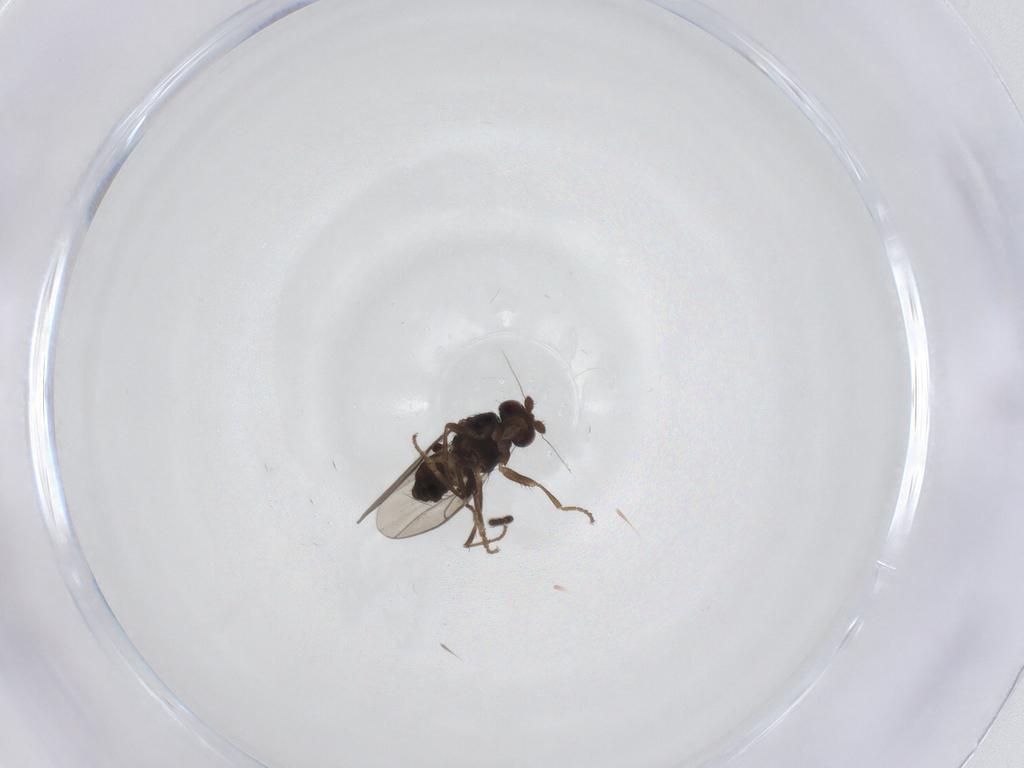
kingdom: Animalia
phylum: Arthropoda
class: Insecta
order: Diptera
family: Sphaeroceridae
